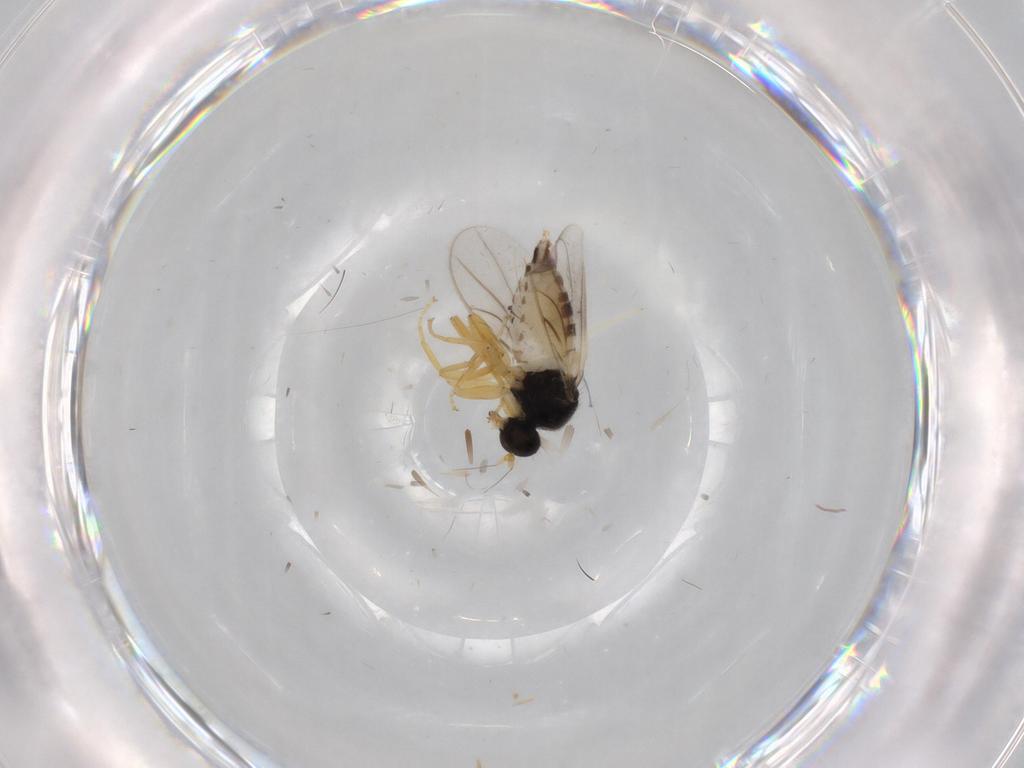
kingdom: Animalia
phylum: Arthropoda
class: Insecta
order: Diptera
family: Hybotidae
